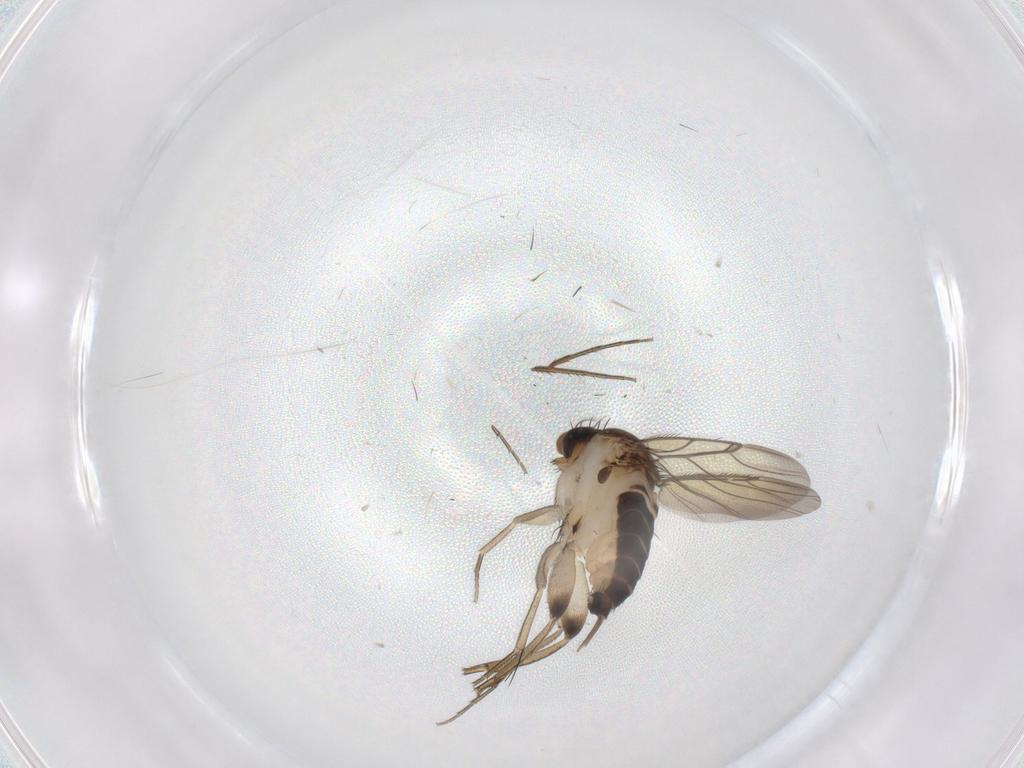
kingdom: Animalia
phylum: Arthropoda
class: Insecta
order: Diptera
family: Phoridae
